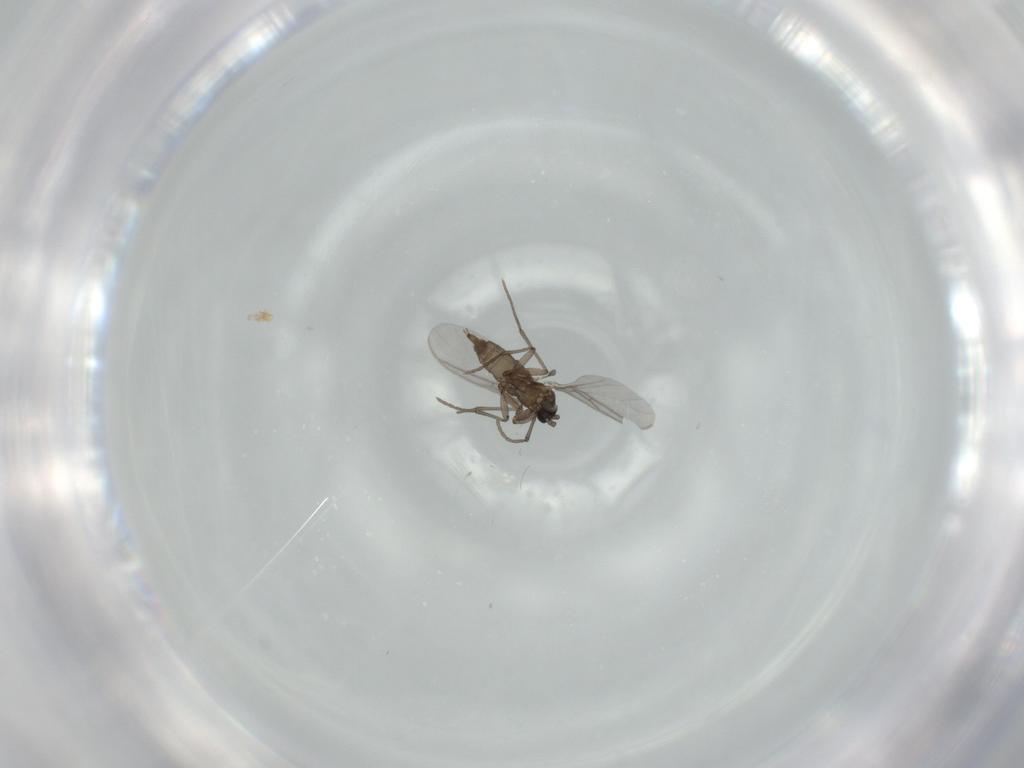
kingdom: Animalia
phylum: Arthropoda
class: Insecta
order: Diptera
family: Sciaridae
